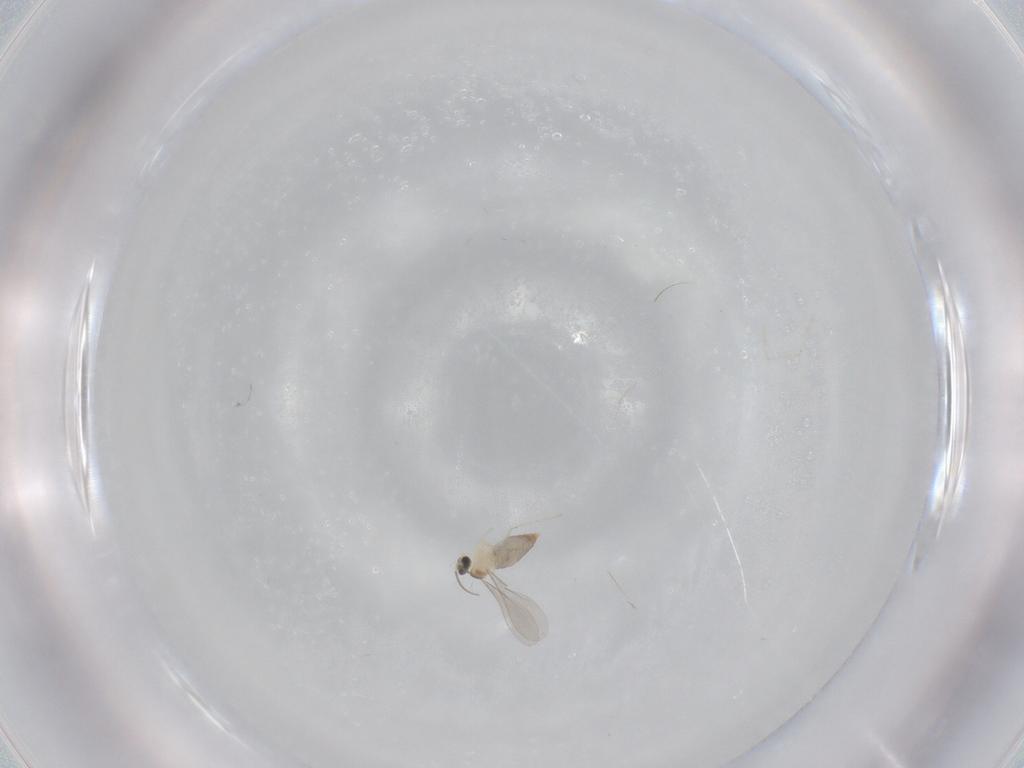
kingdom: Animalia
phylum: Arthropoda
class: Insecta
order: Diptera
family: Cecidomyiidae
